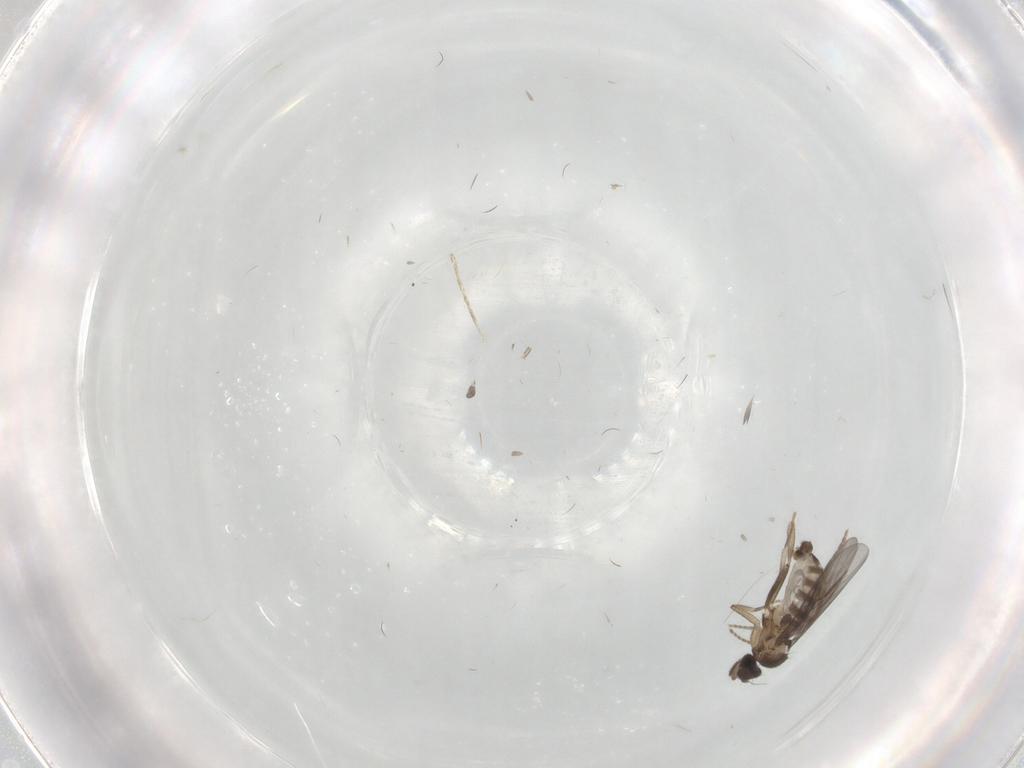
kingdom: Animalia
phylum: Arthropoda
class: Insecta
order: Diptera
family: Cecidomyiidae
